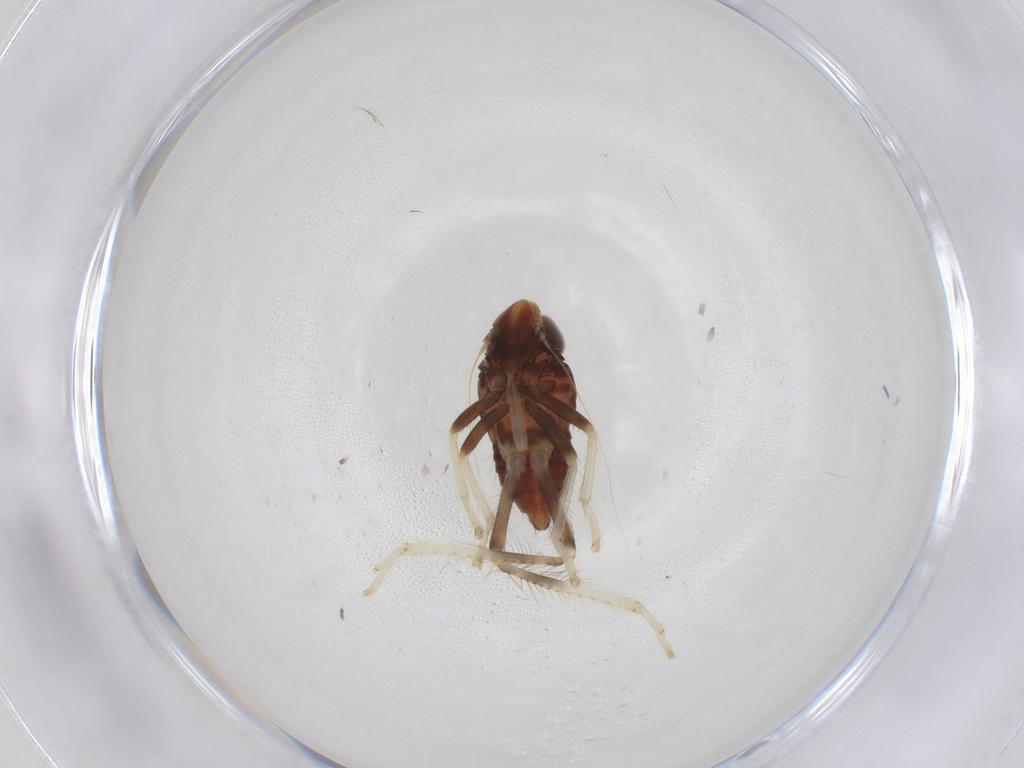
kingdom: Animalia
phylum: Arthropoda
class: Insecta
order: Hemiptera
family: Cicadellidae
